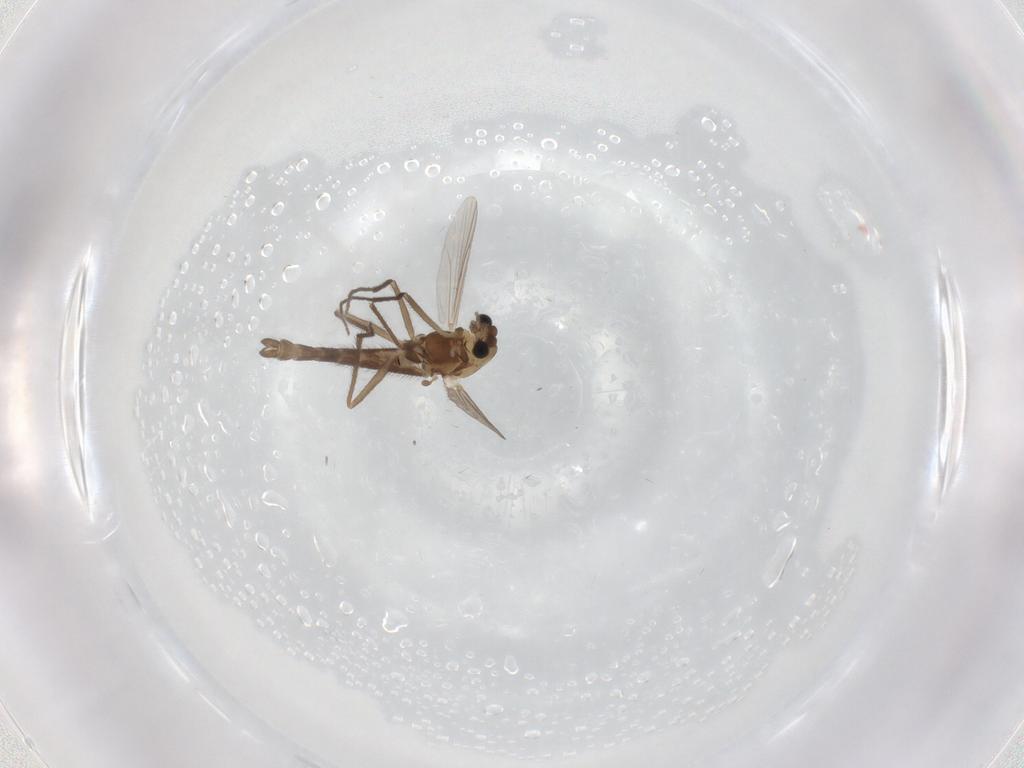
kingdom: Animalia
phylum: Arthropoda
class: Insecta
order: Diptera
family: Chironomidae
